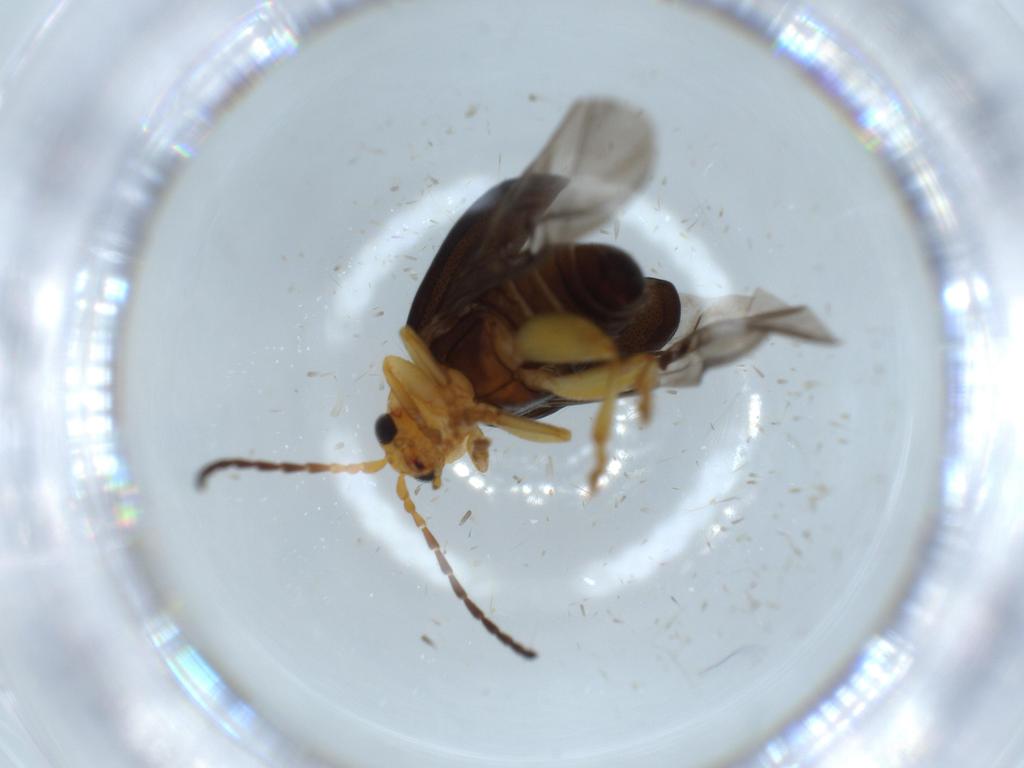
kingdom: Animalia
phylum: Arthropoda
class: Insecta
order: Coleoptera
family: Chrysomelidae
